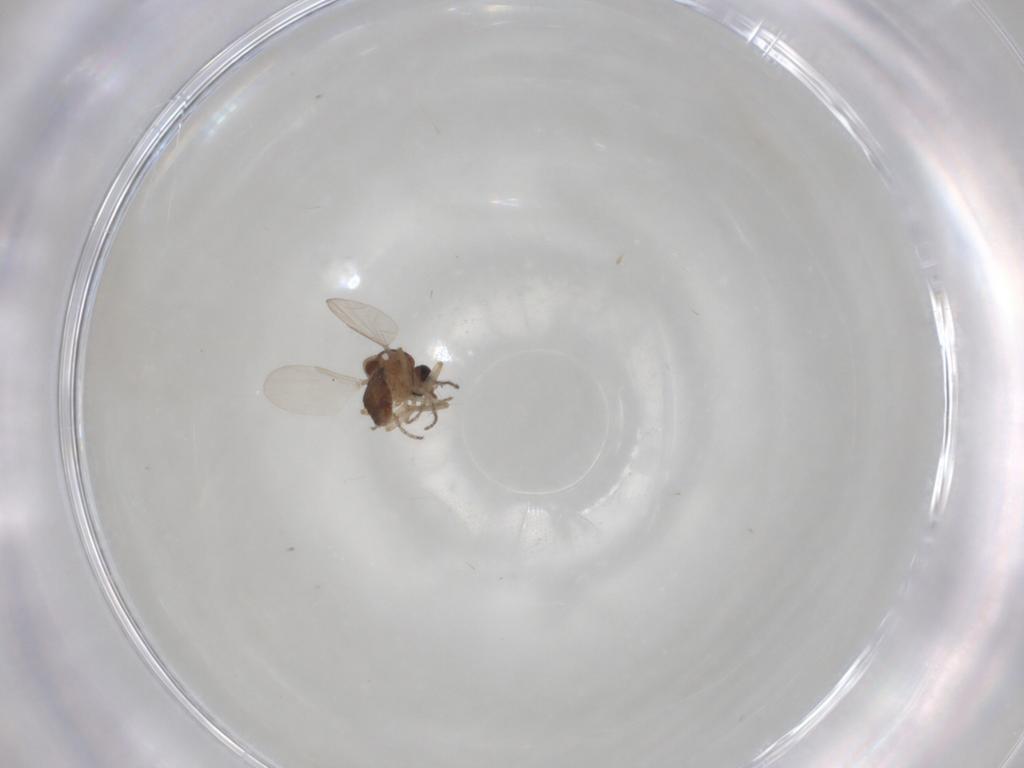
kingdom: Animalia
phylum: Arthropoda
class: Insecta
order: Diptera
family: Ceratopogonidae
